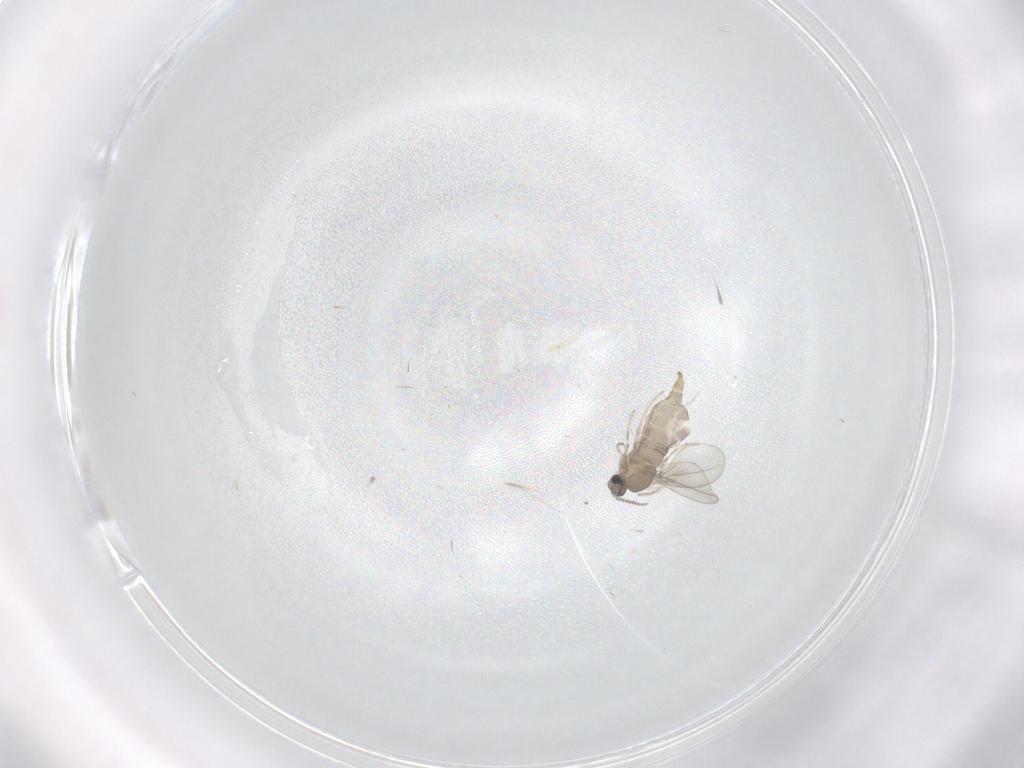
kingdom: Animalia
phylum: Arthropoda
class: Insecta
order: Diptera
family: Cecidomyiidae
